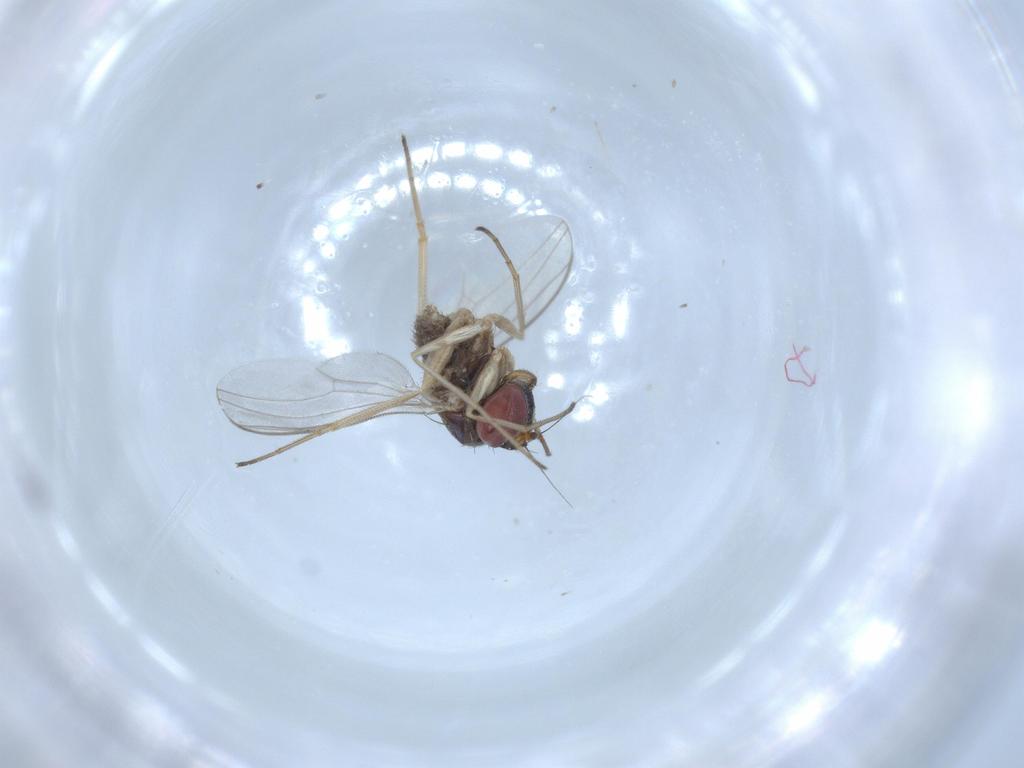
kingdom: Animalia
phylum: Arthropoda
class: Insecta
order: Diptera
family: Dolichopodidae
